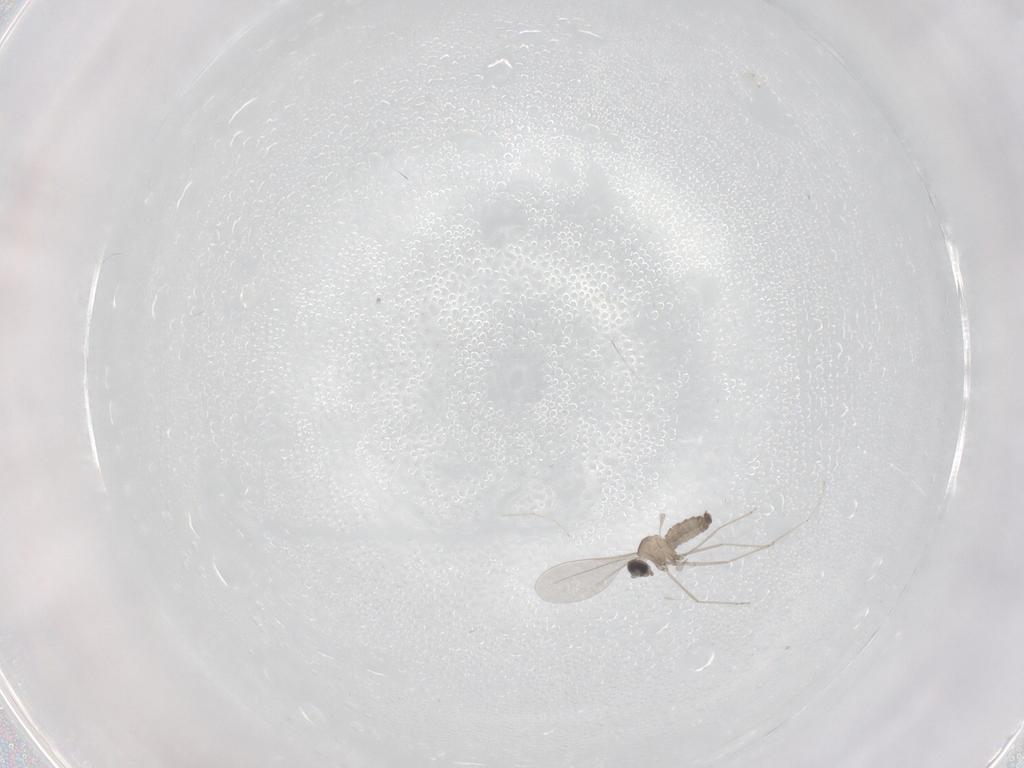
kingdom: Animalia
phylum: Arthropoda
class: Insecta
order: Diptera
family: Cecidomyiidae
